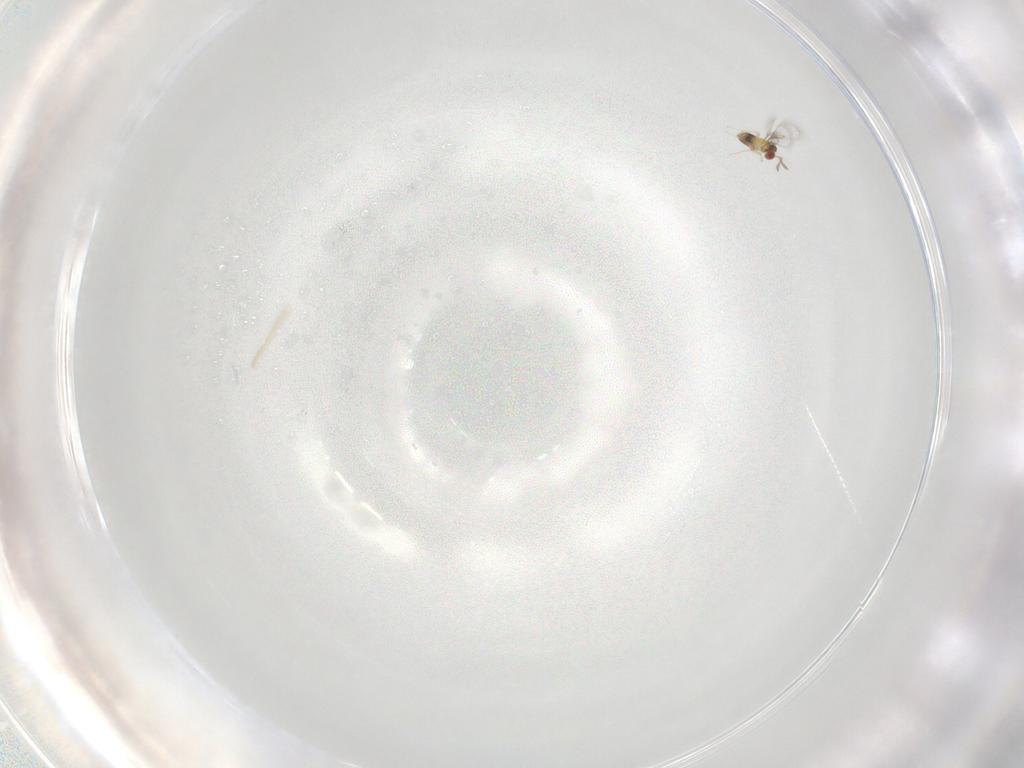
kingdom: Animalia
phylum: Arthropoda
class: Insecta
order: Hymenoptera
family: Trichogrammatidae
